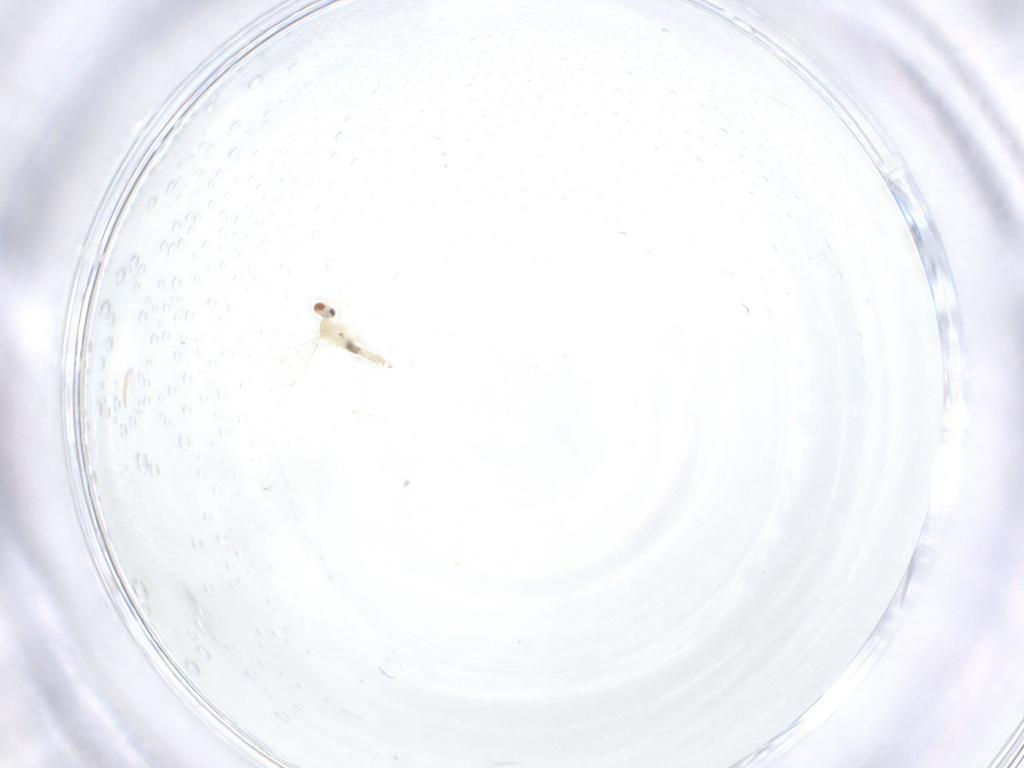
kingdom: Animalia
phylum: Arthropoda
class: Insecta
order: Diptera
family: Cecidomyiidae
